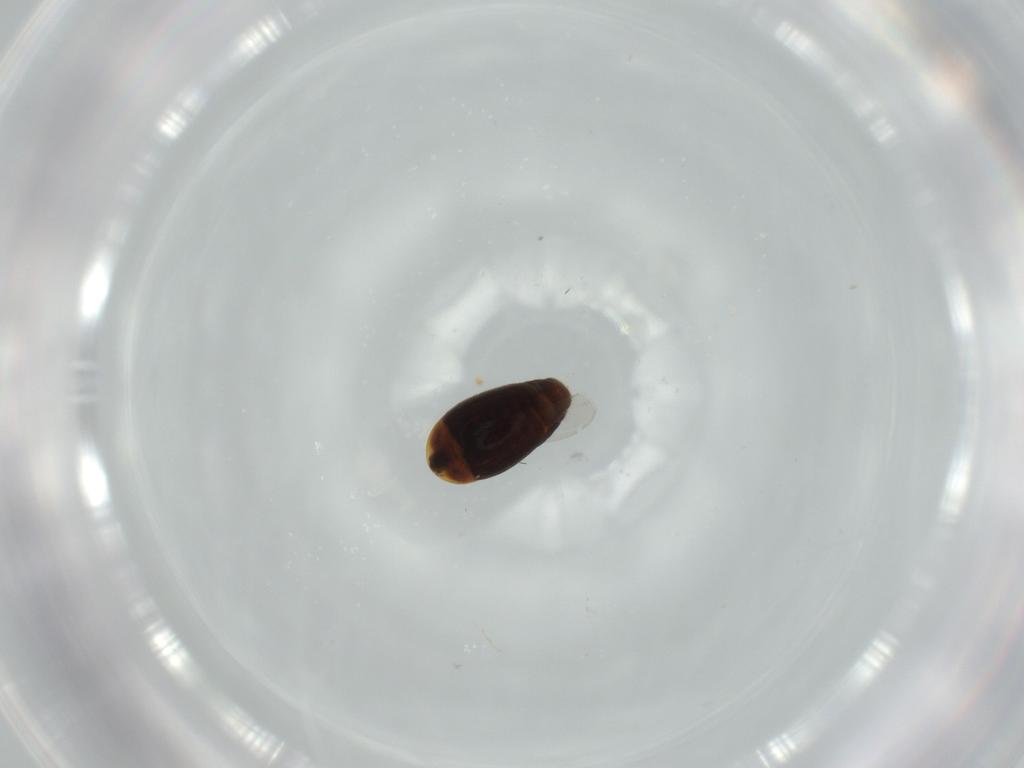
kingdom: Animalia
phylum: Arthropoda
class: Insecta
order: Coleoptera
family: Corylophidae
